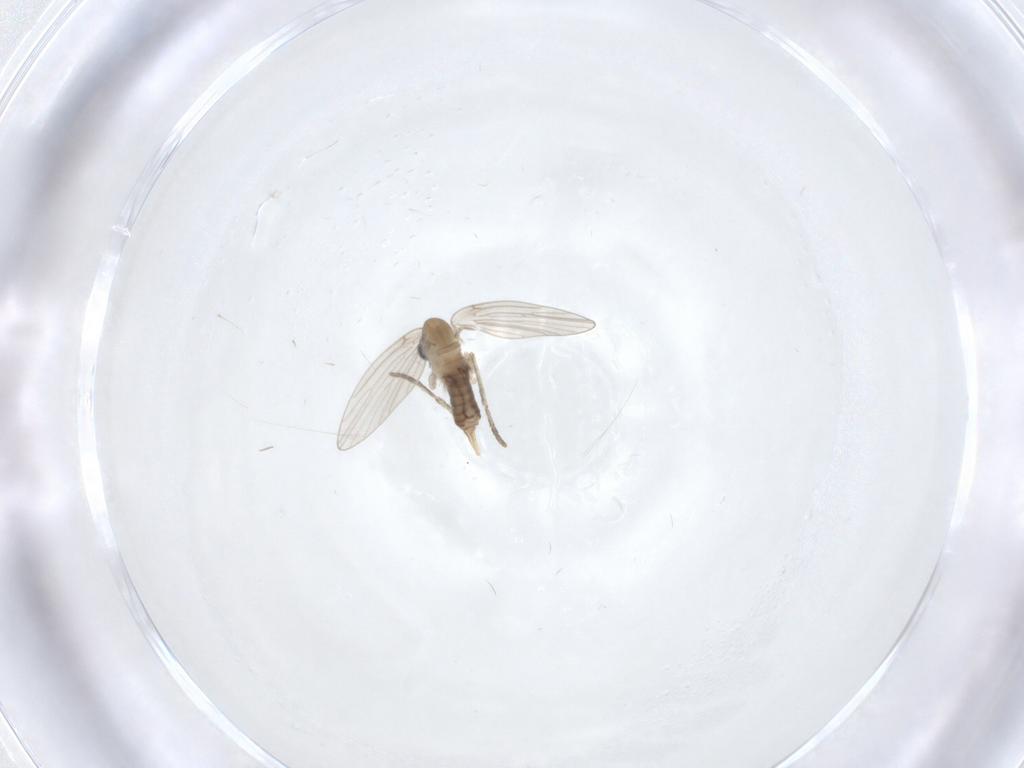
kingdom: Animalia
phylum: Arthropoda
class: Insecta
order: Diptera
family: Psychodidae
